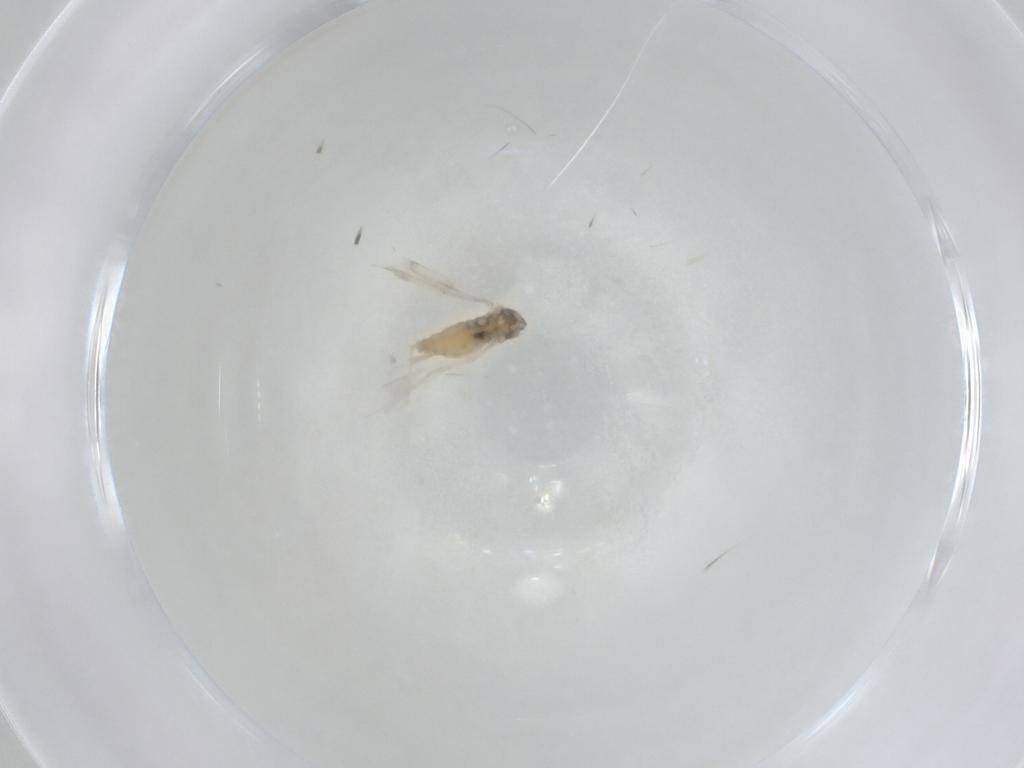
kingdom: Animalia
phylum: Arthropoda
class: Insecta
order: Diptera
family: Cecidomyiidae
